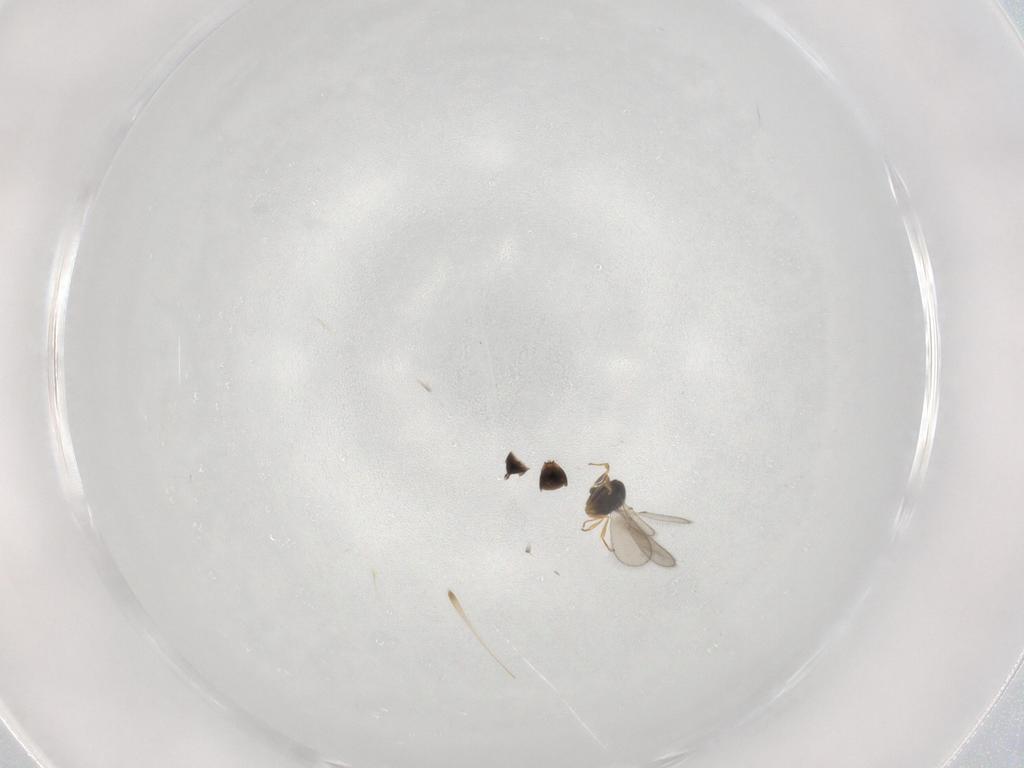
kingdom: Animalia
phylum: Arthropoda
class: Insecta
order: Hymenoptera
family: Scelionidae
